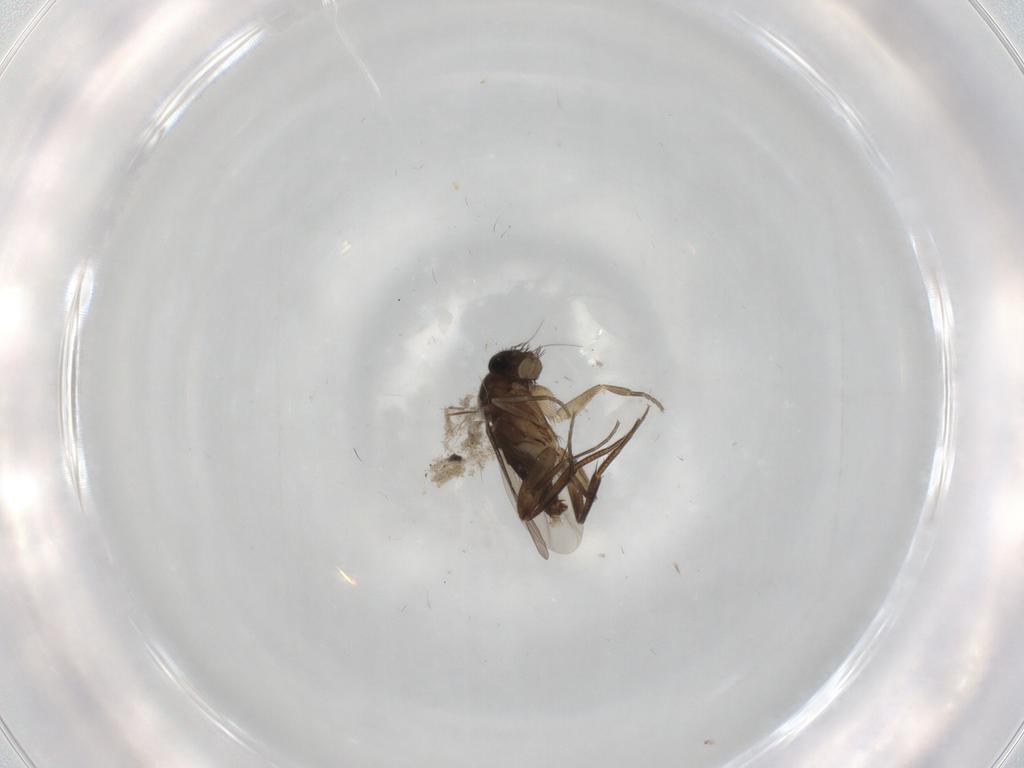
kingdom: Animalia
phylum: Arthropoda
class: Insecta
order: Diptera
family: Phoridae
